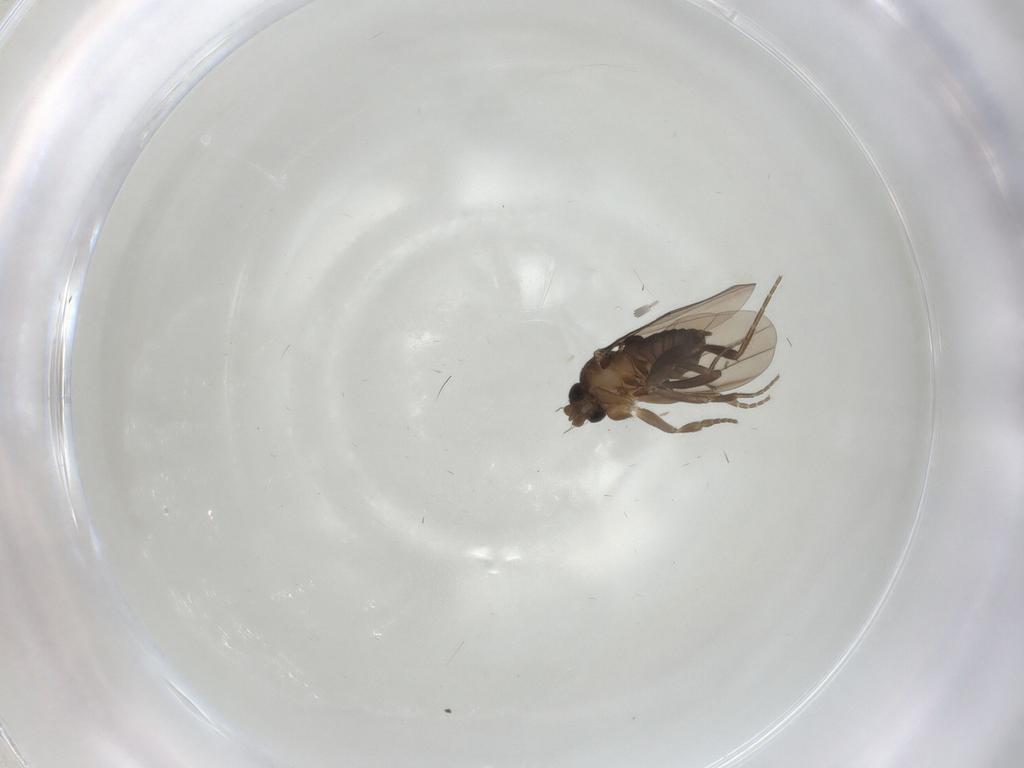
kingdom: Animalia
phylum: Arthropoda
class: Insecta
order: Diptera
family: Phoridae
